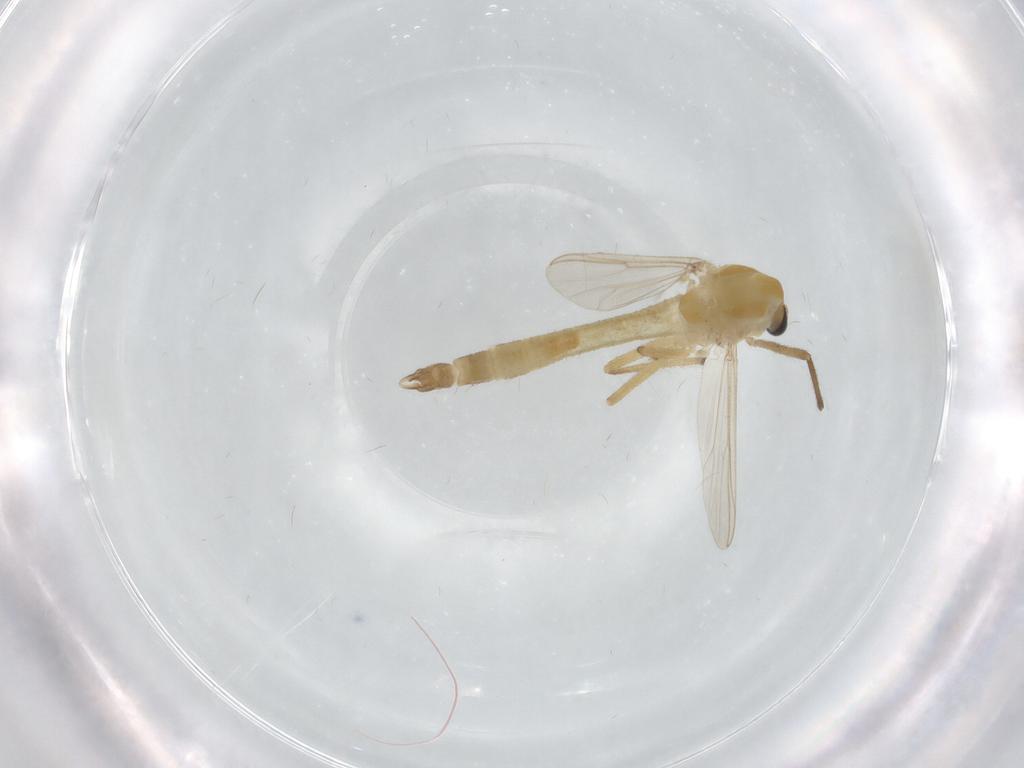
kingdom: Animalia
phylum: Arthropoda
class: Insecta
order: Diptera
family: Chironomidae
